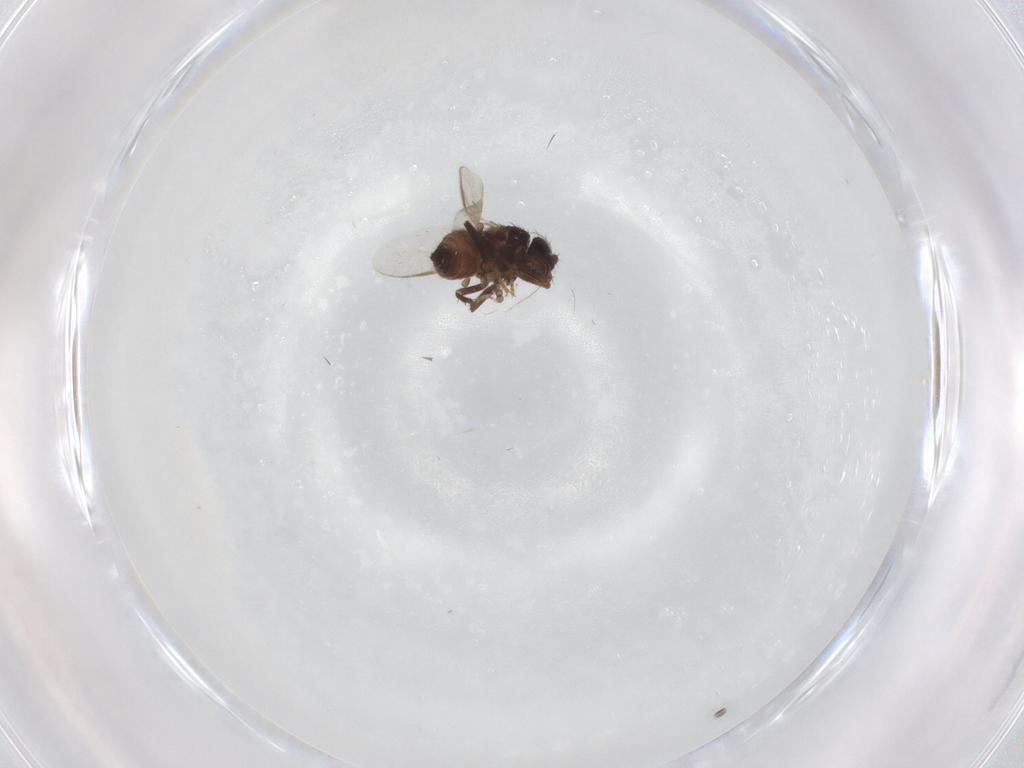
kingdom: Animalia
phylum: Arthropoda
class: Insecta
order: Diptera
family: Sphaeroceridae
